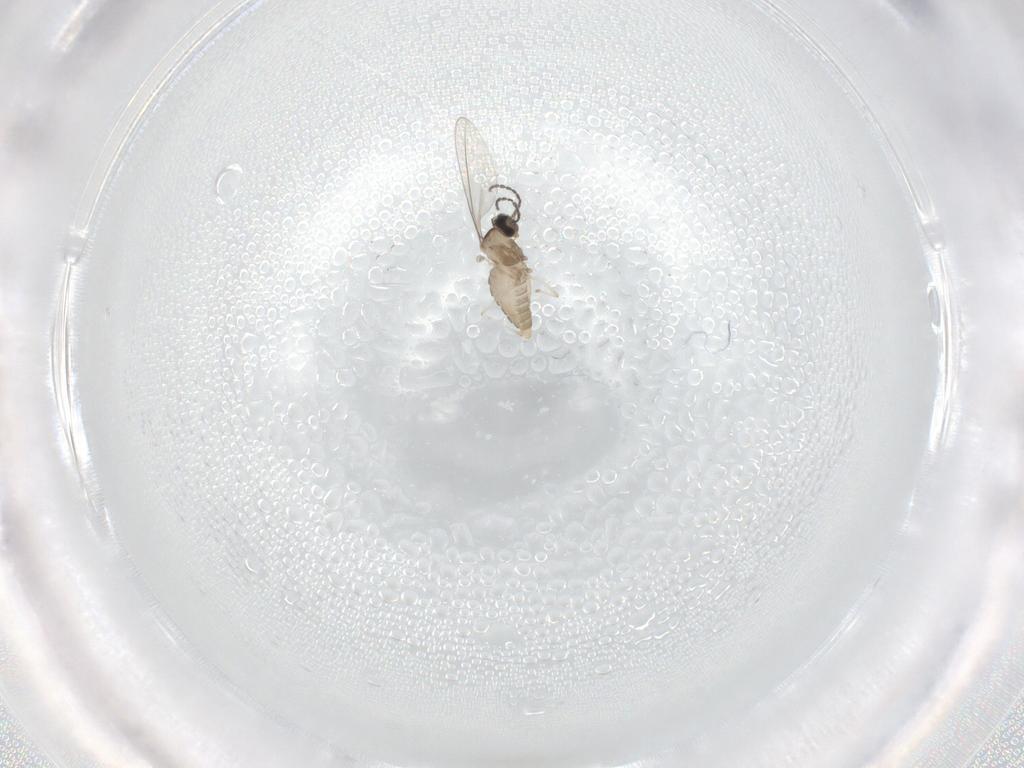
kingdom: Animalia
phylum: Arthropoda
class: Insecta
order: Diptera
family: Cecidomyiidae
